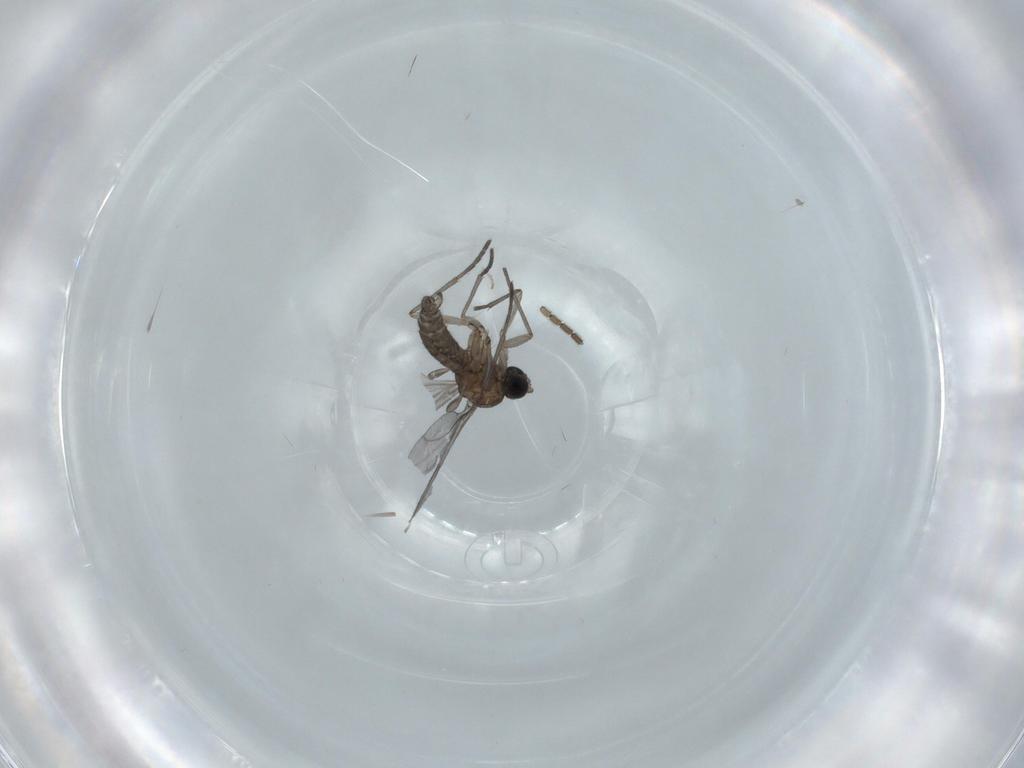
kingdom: Animalia
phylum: Arthropoda
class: Insecta
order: Diptera
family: Sciaridae
